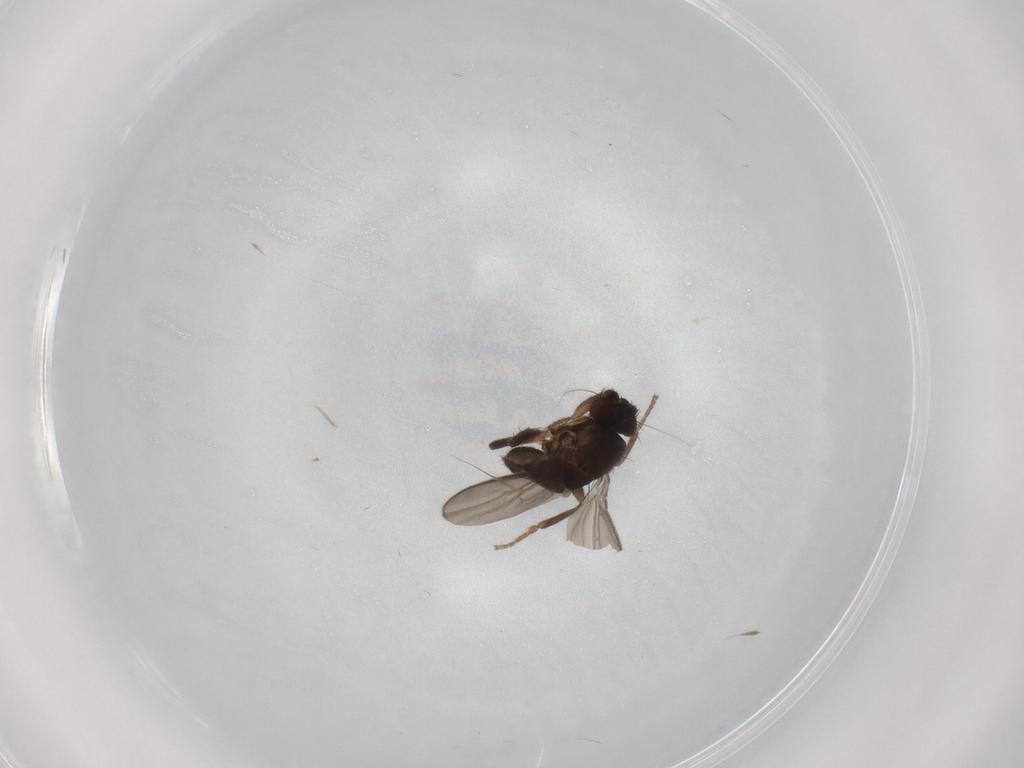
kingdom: Animalia
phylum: Arthropoda
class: Insecta
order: Diptera
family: Sphaeroceridae
